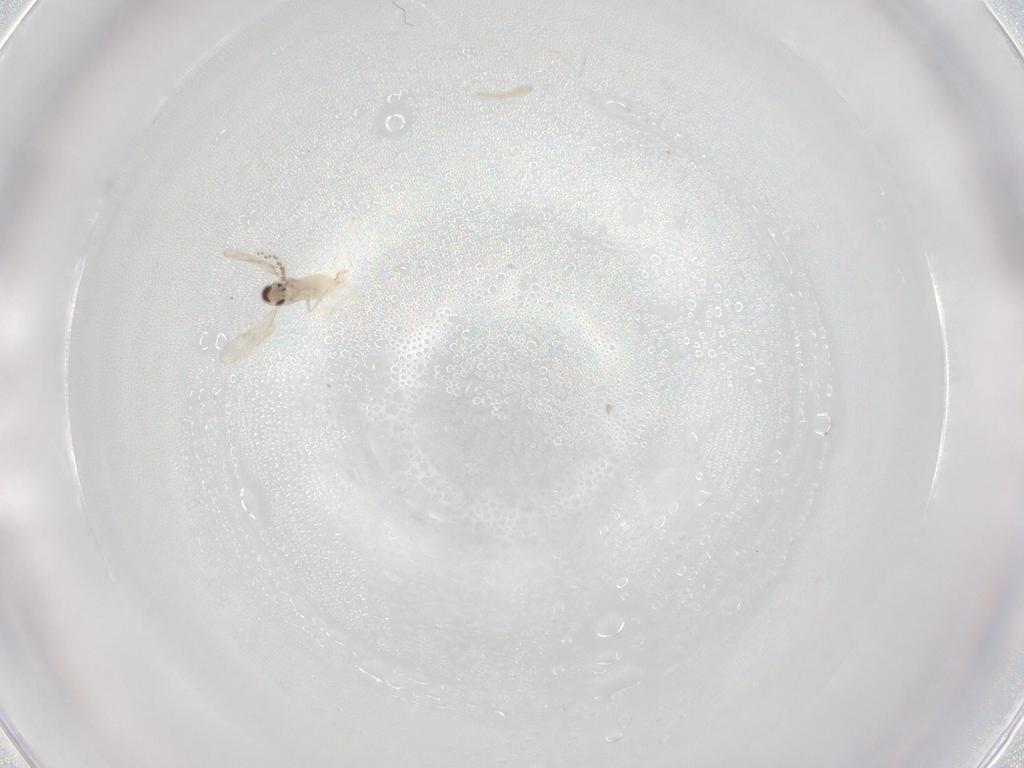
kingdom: Animalia
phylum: Arthropoda
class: Insecta
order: Diptera
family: Cecidomyiidae
